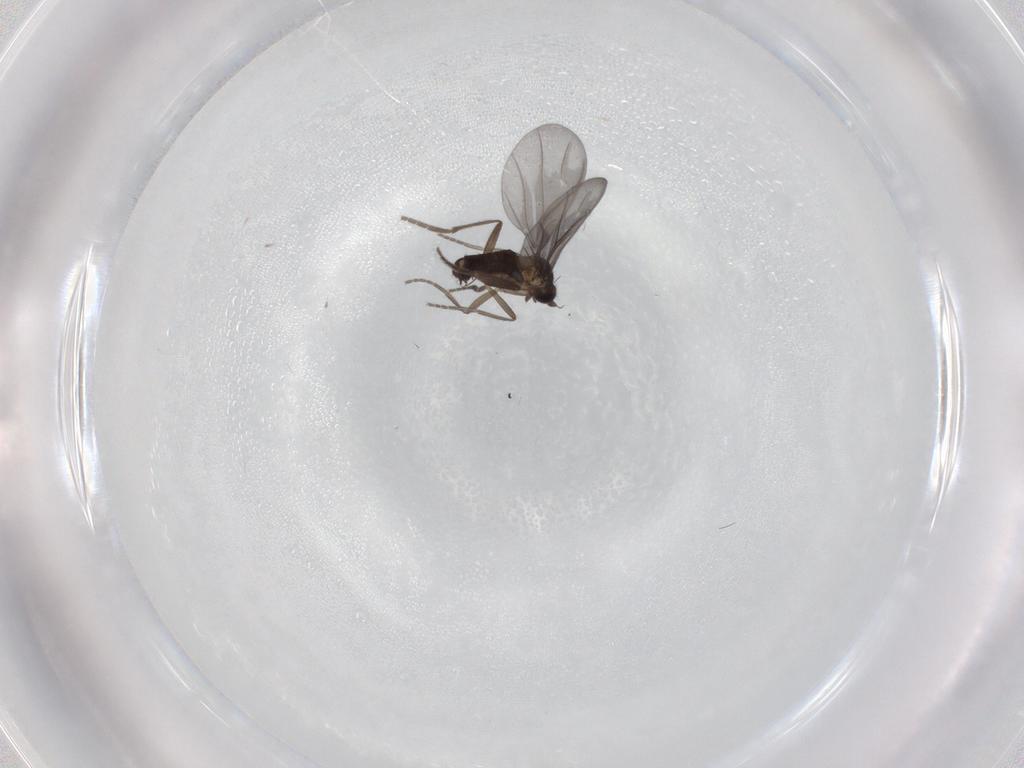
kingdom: Animalia
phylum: Arthropoda
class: Insecta
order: Diptera
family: Phoridae
